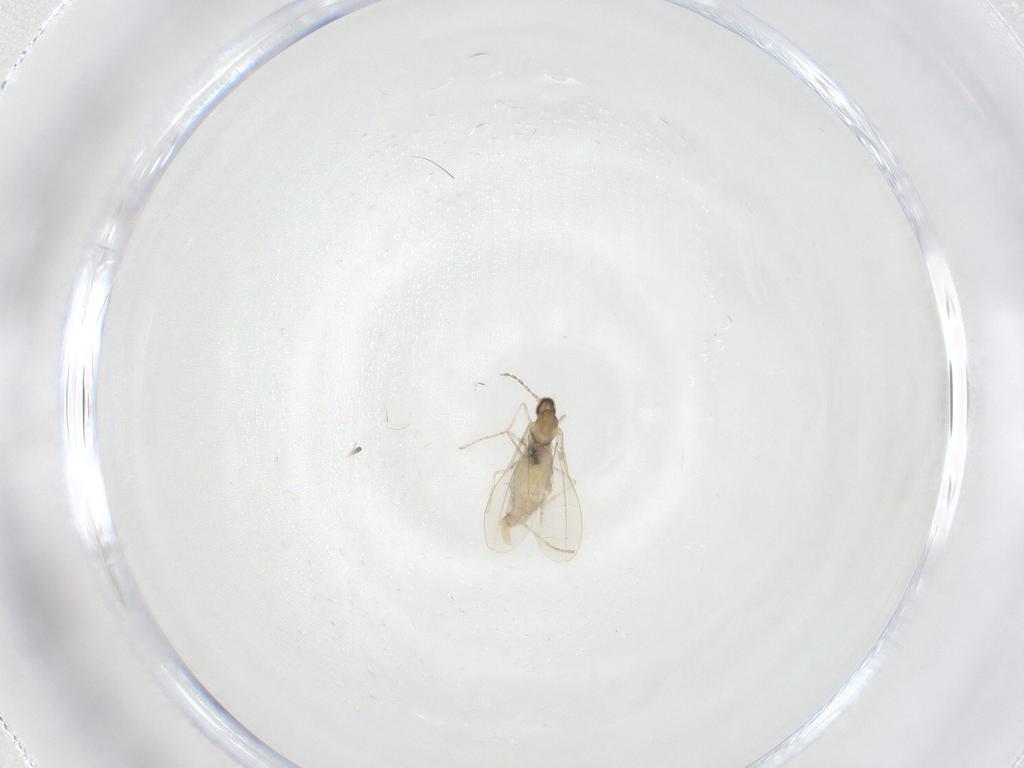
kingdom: Animalia
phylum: Arthropoda
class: Insecta
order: Diptera
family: Cecidomyiidae
